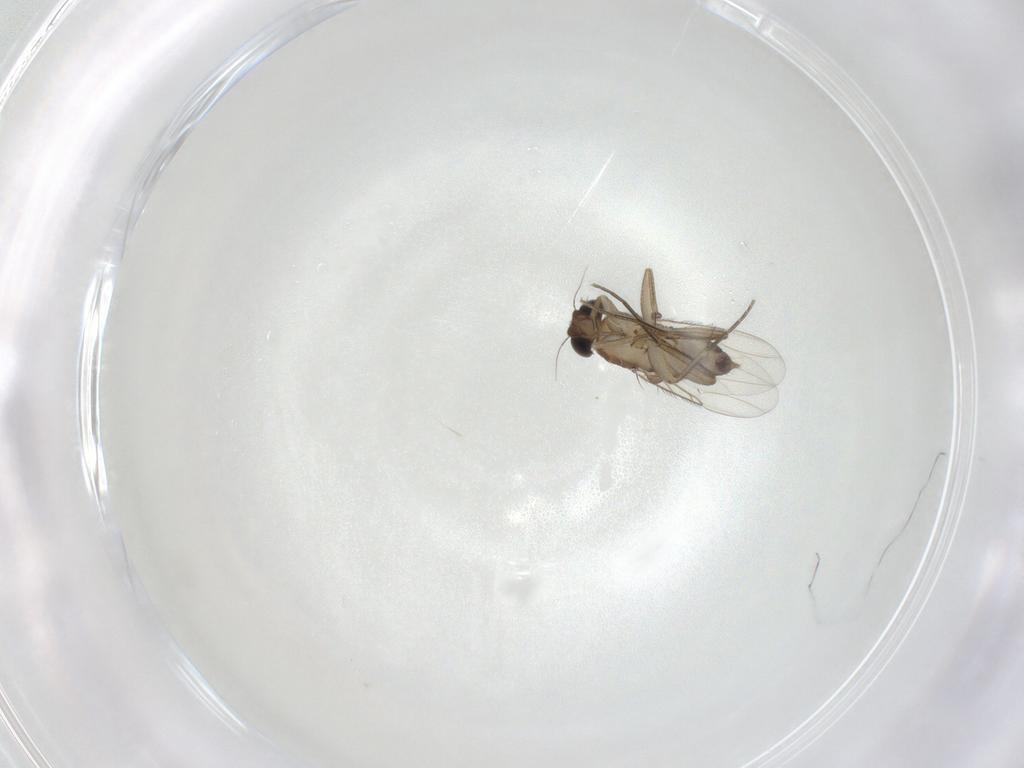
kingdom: Animalia
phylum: Arthropoda
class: Insecta
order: Diptera
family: Phoridae
